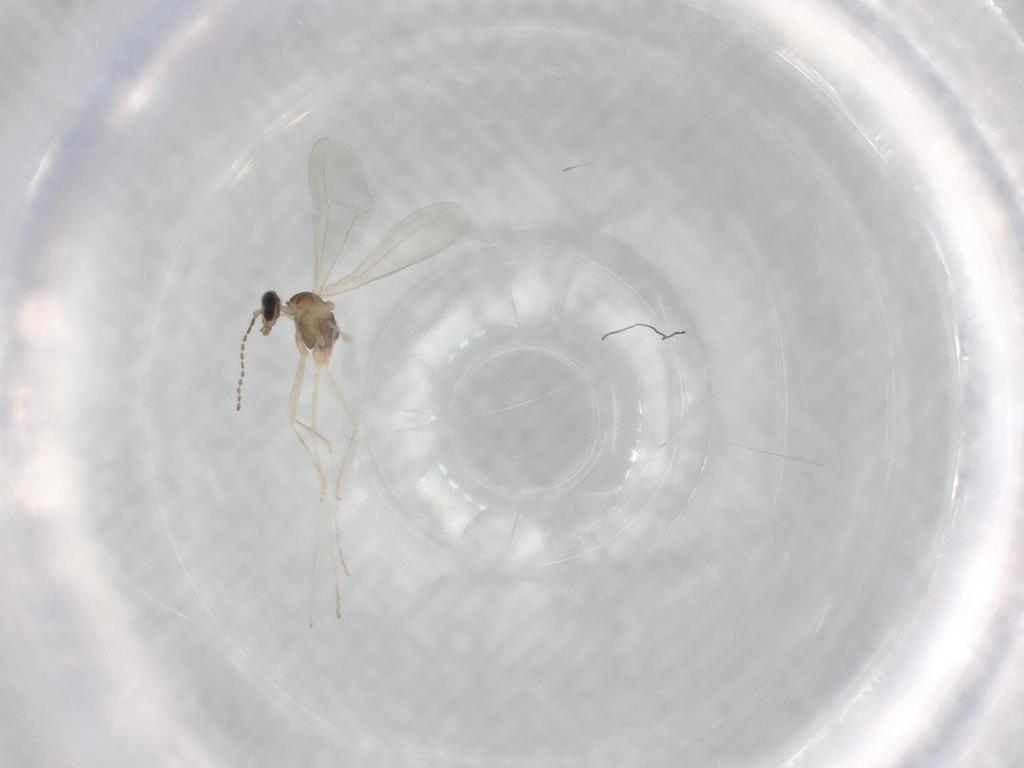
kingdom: Animalia
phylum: Arthropoda
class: Insecta
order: Diptera
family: Cecidomyiidae
